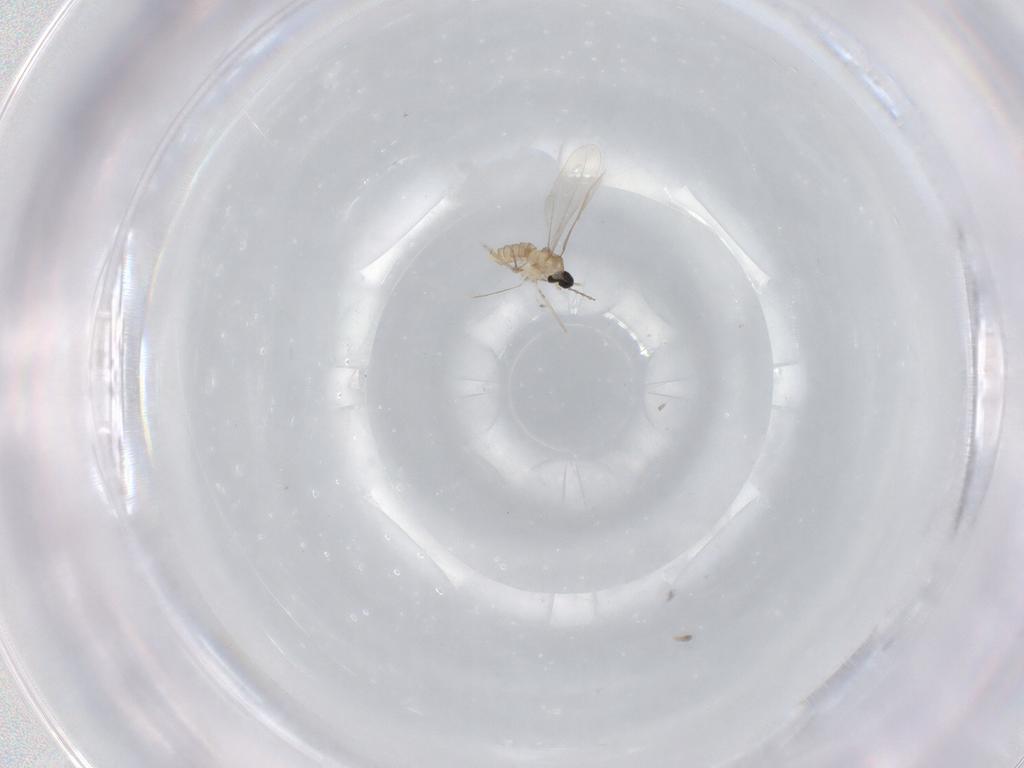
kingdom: Animalia
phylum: Arthropoda
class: Insecta
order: Diptera
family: Cecidomyiidae
